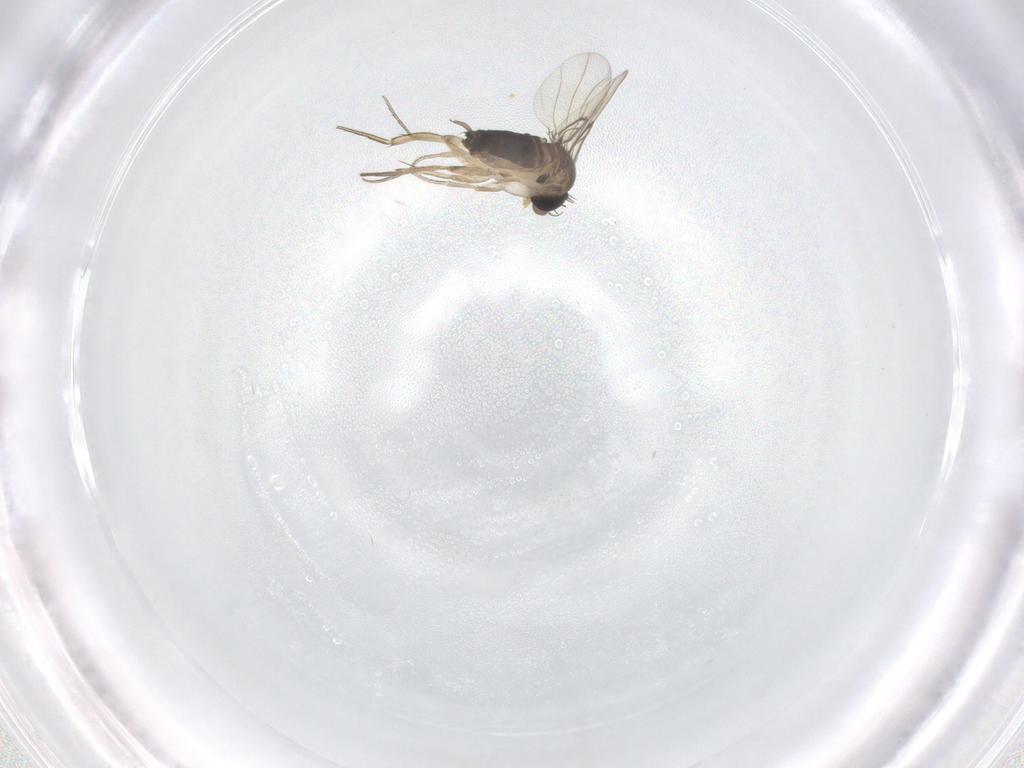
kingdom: Animalia
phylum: Arthropoda
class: Insecta
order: Diptera
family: Phoridae
